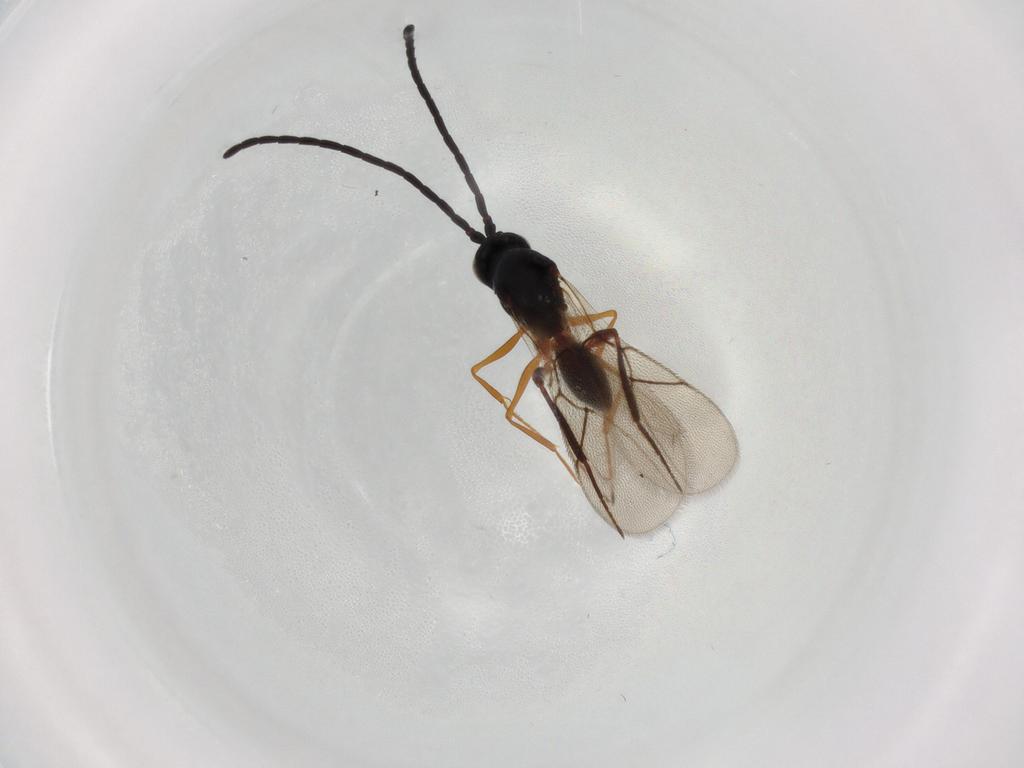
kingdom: Animalia
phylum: Arthropoda
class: Insecta
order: Hymenoptera
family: Figitidae
